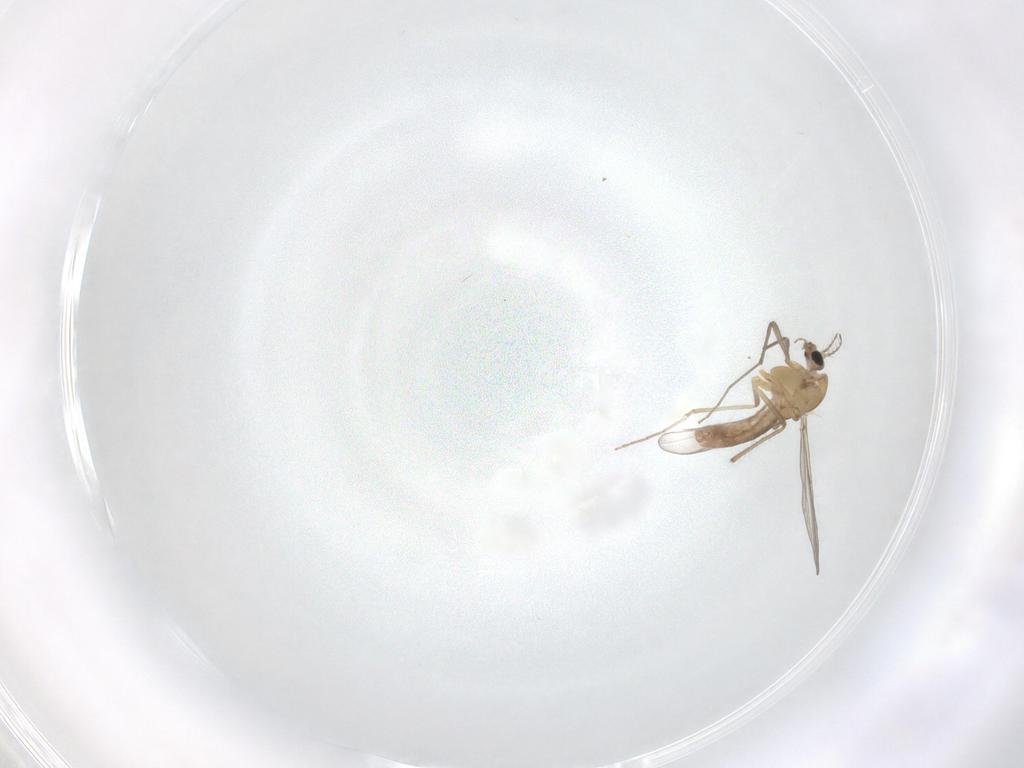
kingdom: Animalia
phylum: Arthropoda
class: Insecta
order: Diptera
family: Chironomidae
